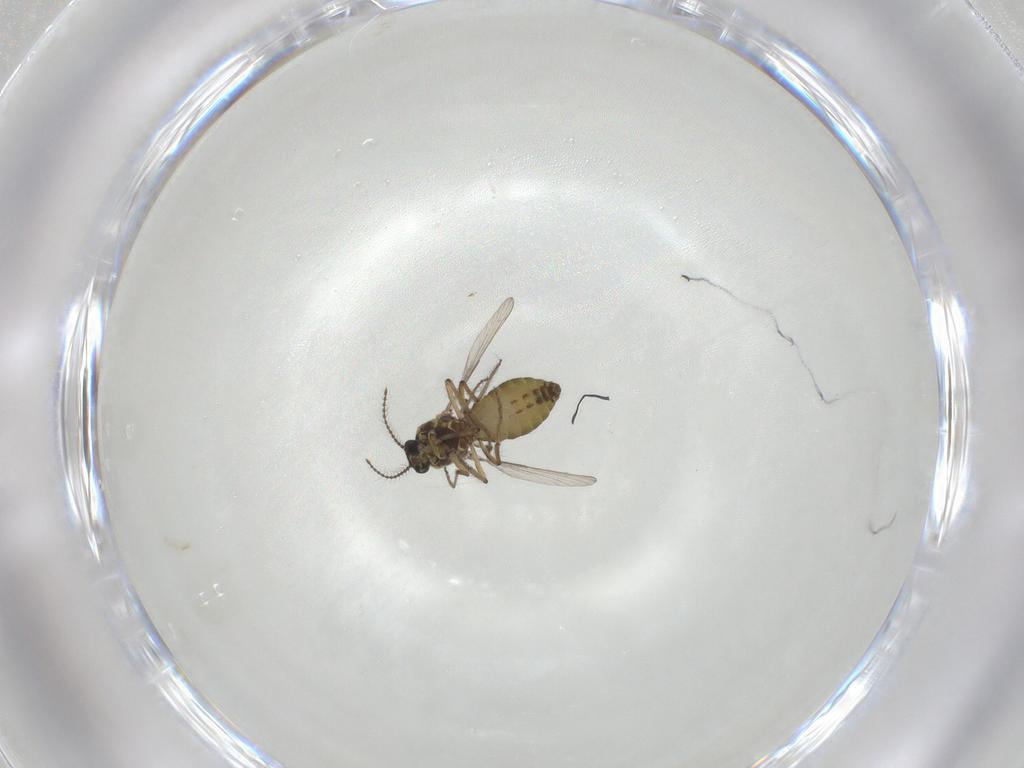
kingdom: Animalia
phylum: Arthropoda
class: Insecta
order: Diptera
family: Ceratopogonidae
